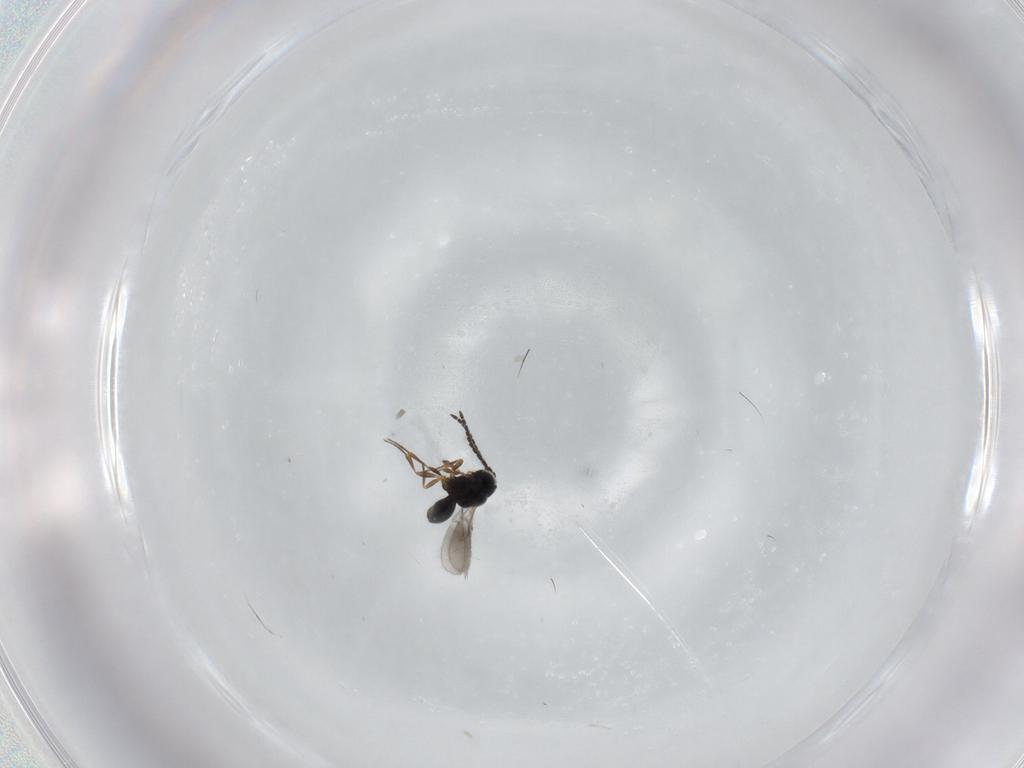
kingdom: Animalia
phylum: Arthropoda
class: Insecta
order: Hymenoptera
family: Scelionidae
